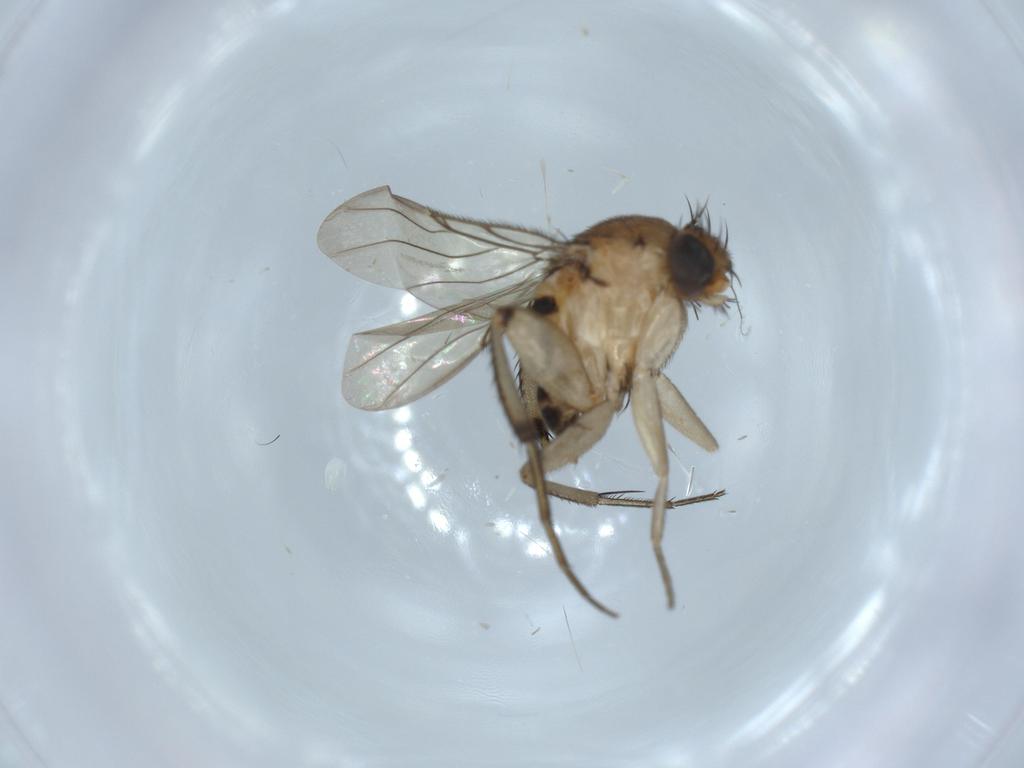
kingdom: Animalia
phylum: Arthropoda
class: Insecta
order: Diptera
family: Phoridae
